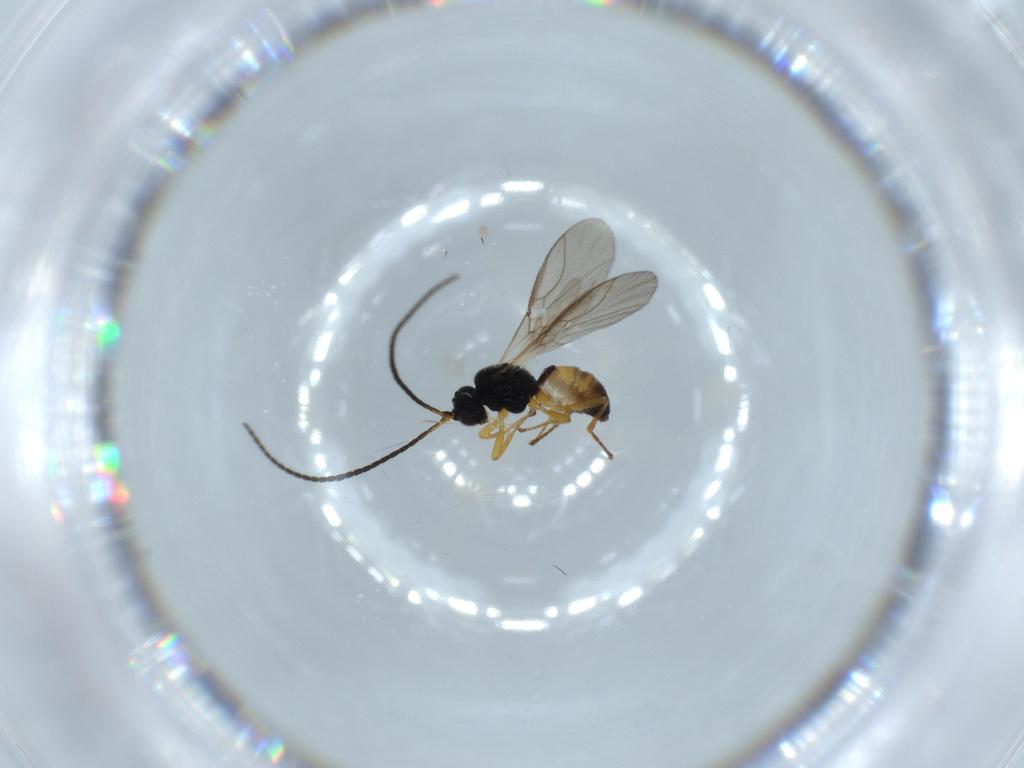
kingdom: Animalia
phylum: Arthropoda
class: Insecta
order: Hymenoptera
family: Formicidae
